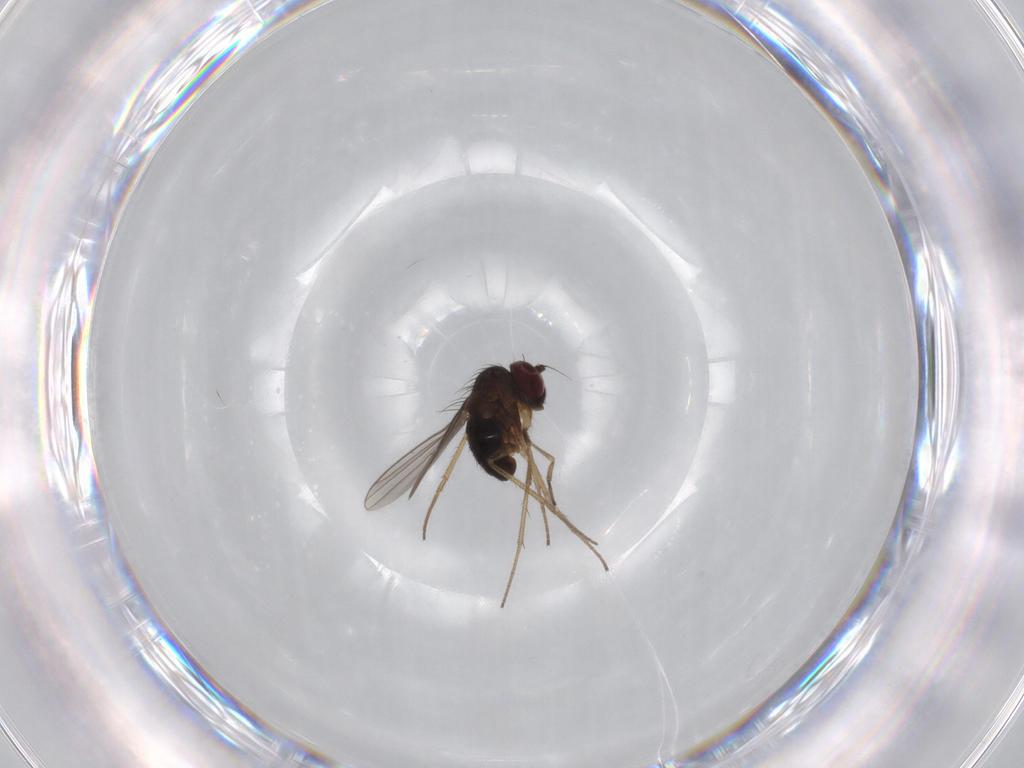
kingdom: Animalia
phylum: Arthropoda
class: Insecta
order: Diptera
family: Dolichopodidae
